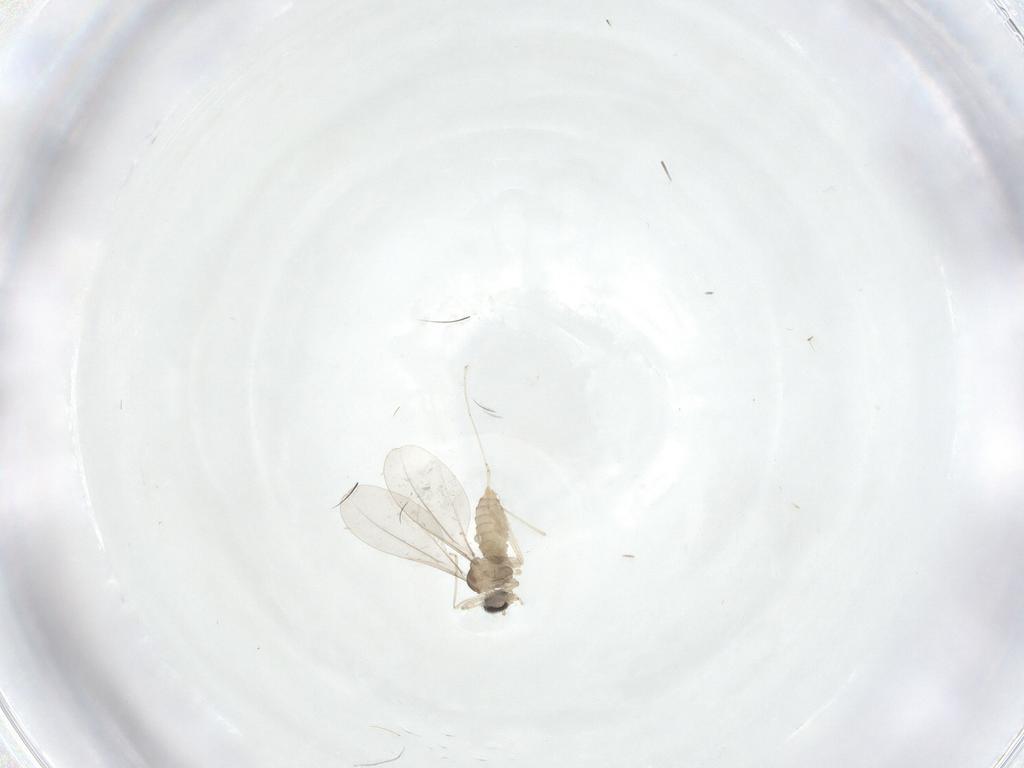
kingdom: Animalia
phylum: Arthropoda
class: Insecta
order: Diptera
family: Cecidomyiidae
